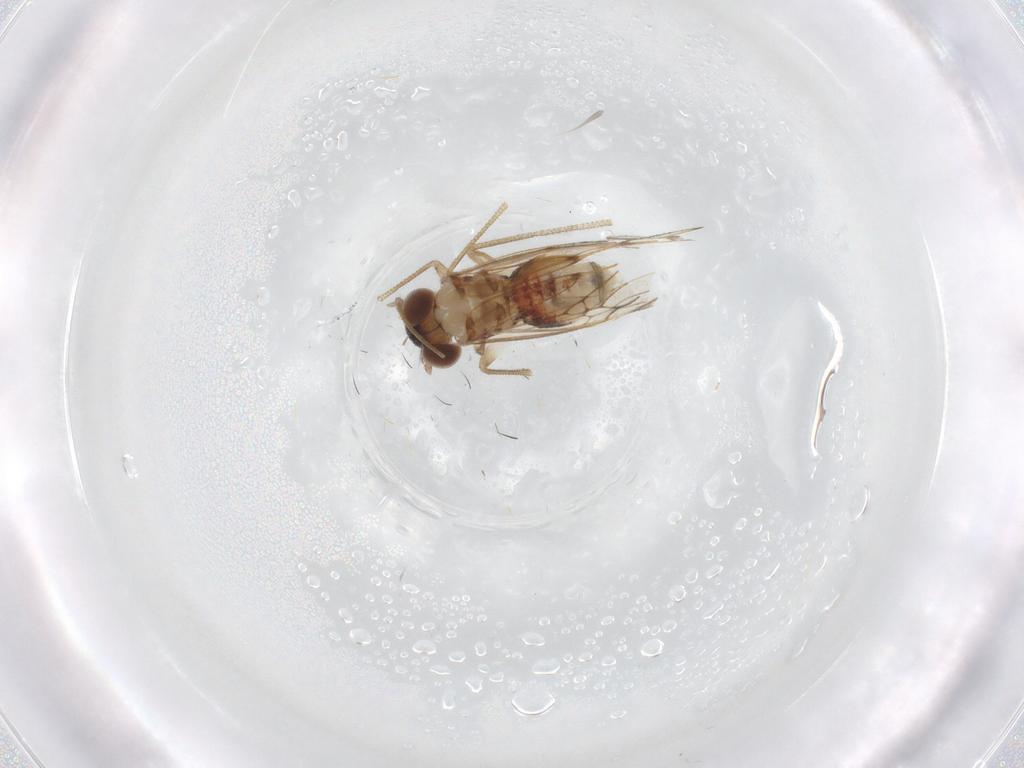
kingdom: Animalia
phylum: Arthropoda
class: Insecta
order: Psocodea
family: Epipsocidae
